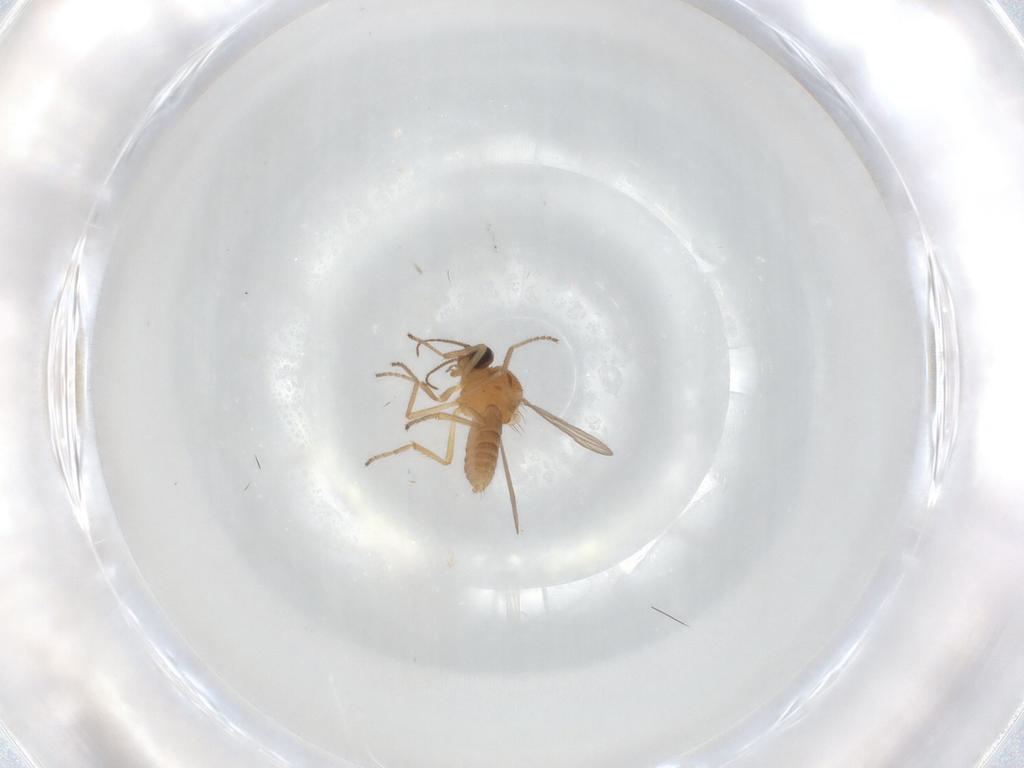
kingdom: Animalia
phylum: Arthropoda
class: Insecta
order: Diptera
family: Ceratopogonidae
